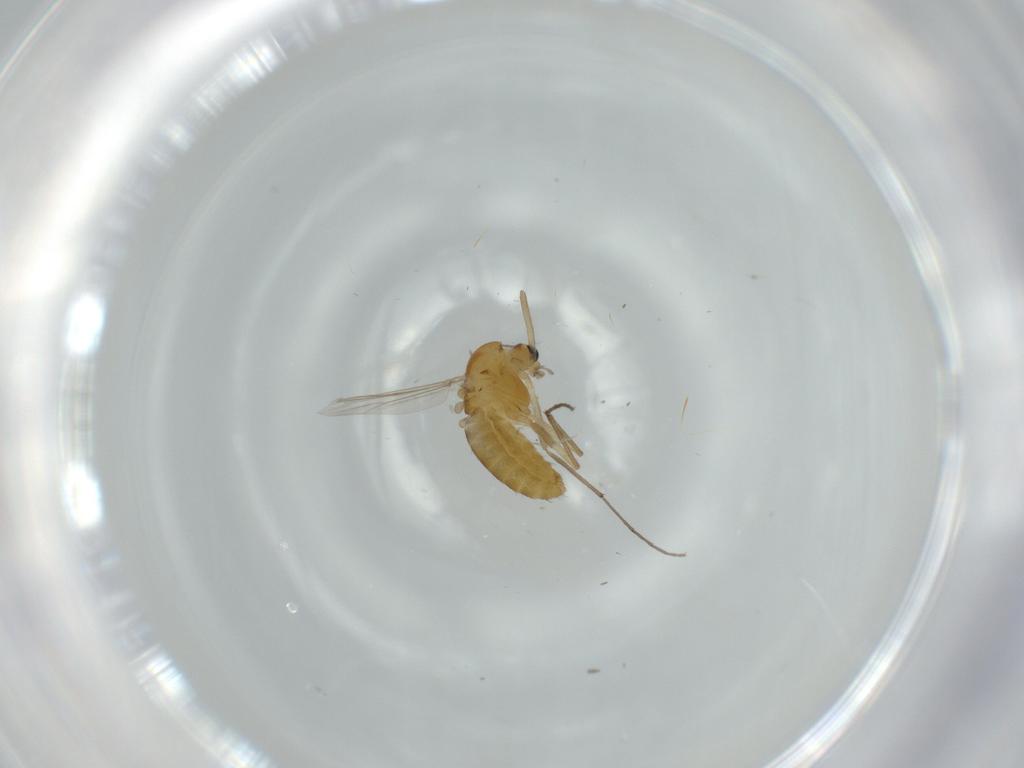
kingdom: Animalia
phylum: Arthropoda
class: Insecta
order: Diptera
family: Chironomidae
